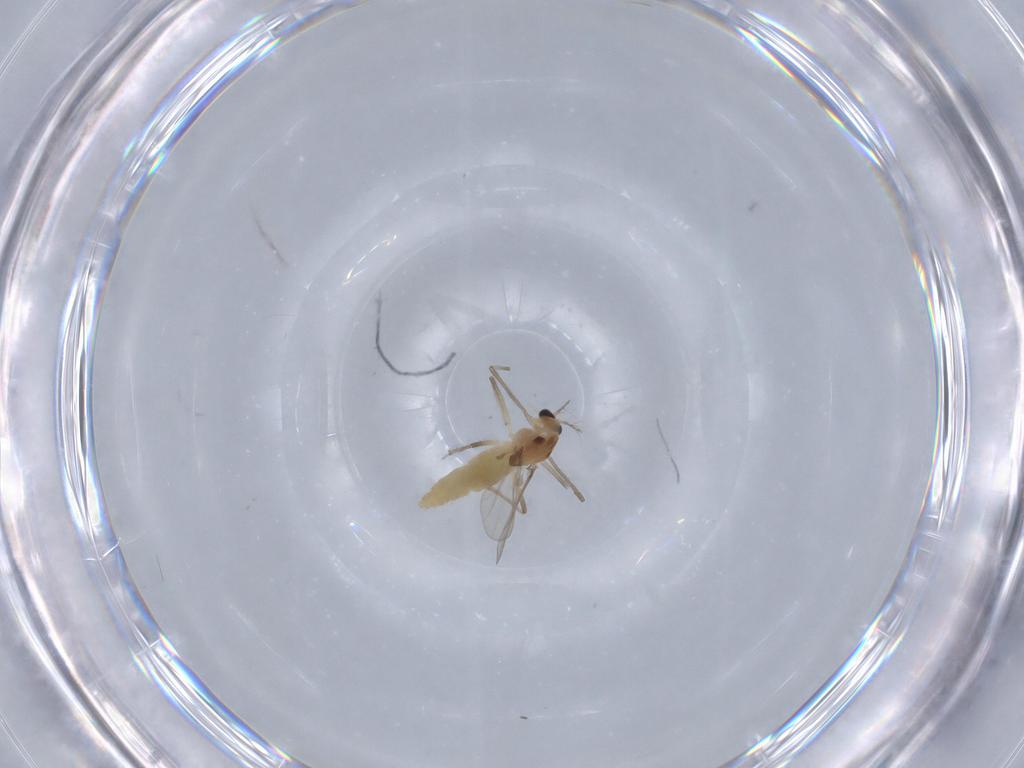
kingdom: Animalia
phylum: Arthropoda
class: Insecta
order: Diptera
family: Chironomidae
